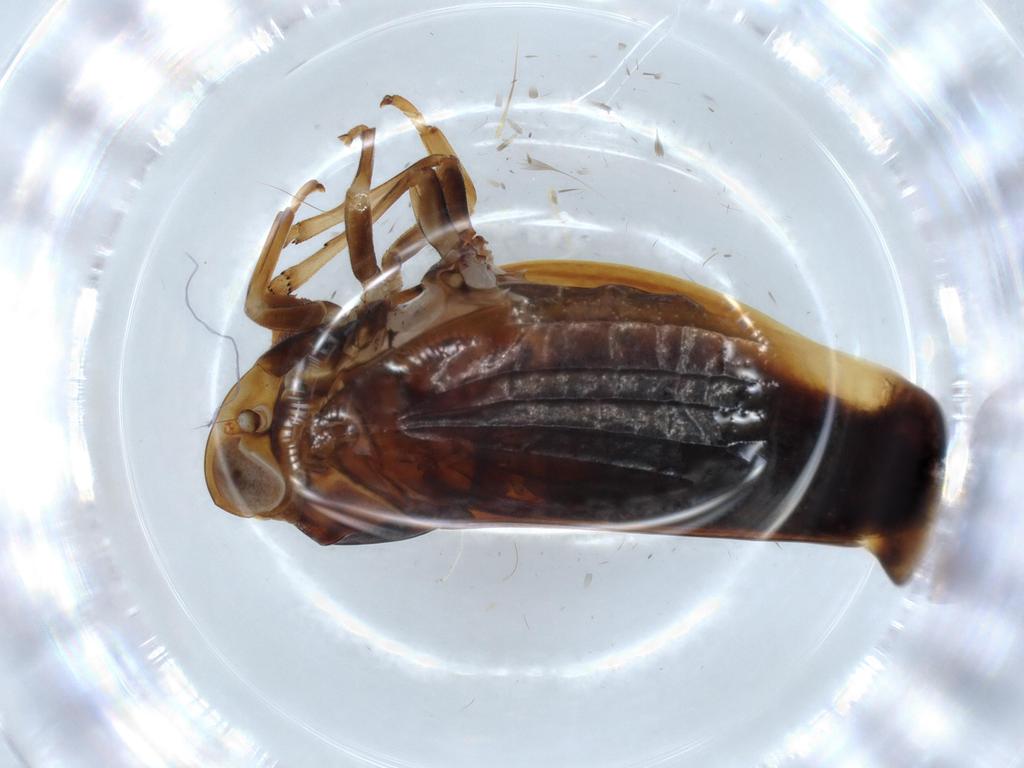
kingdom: Animalia
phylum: Arthropoda
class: Insecta
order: Hemiptera
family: Nogodinidae
